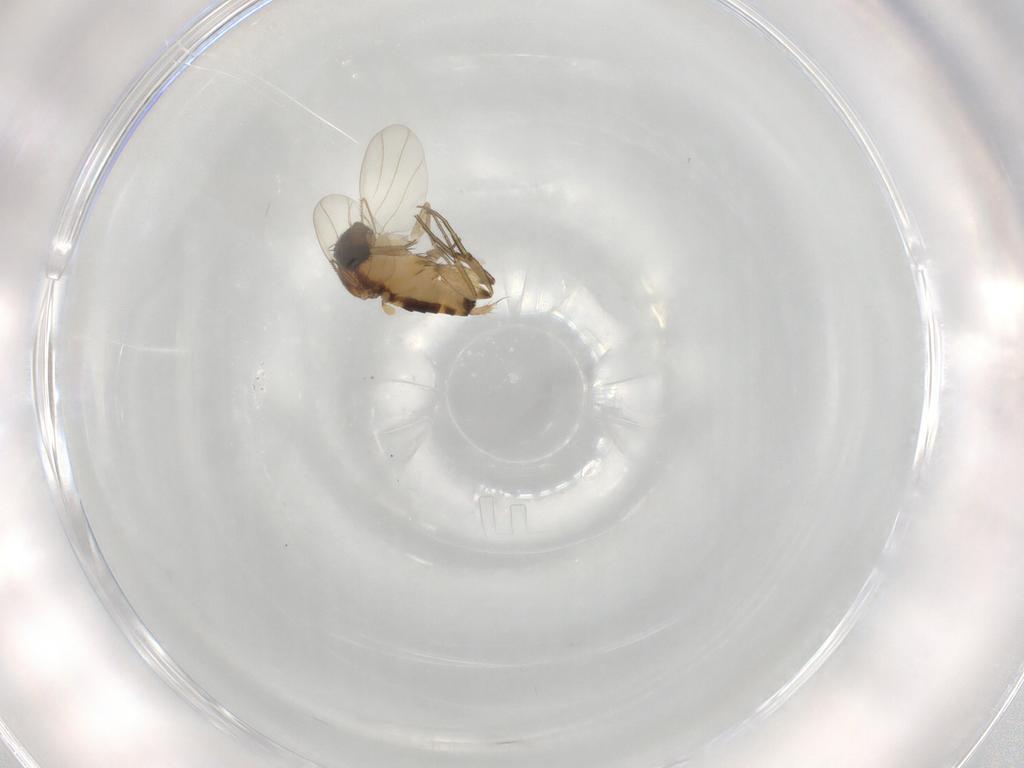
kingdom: Animalia
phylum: Arthropoda
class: Insecta
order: Diptera
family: Phoridae
